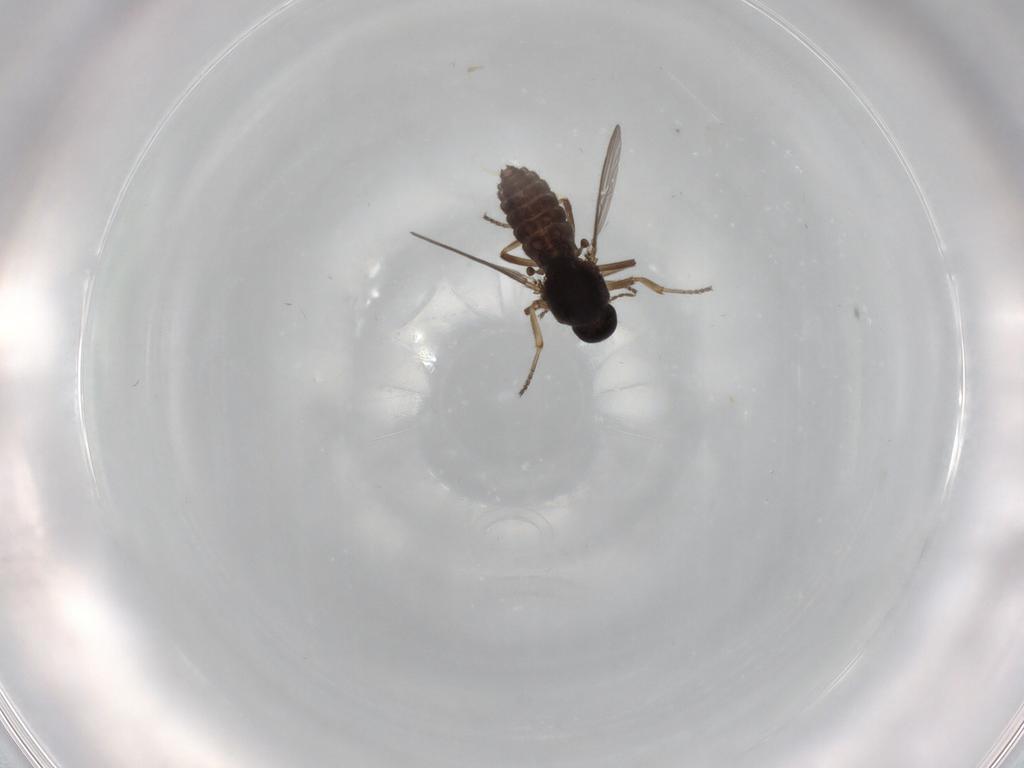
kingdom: Animalia
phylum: Arthropoda
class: Insecta
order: Diptera
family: Ceratopogonidae
